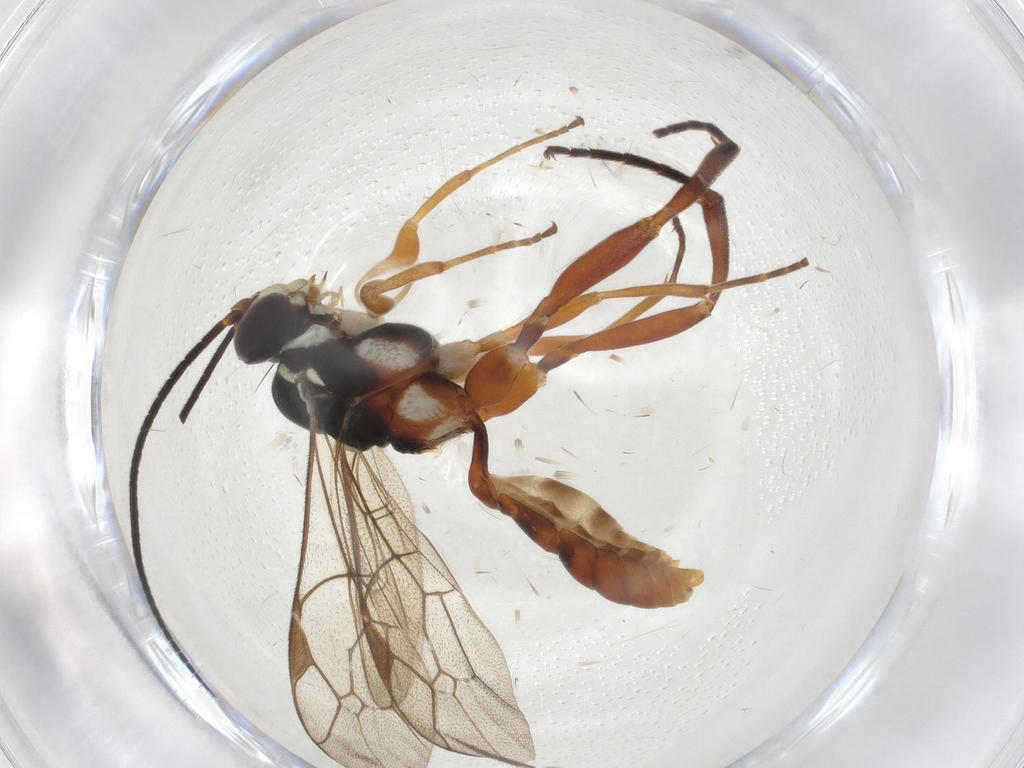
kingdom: Animalia
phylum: Arthropoda
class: Insecta
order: Hymenoptera
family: Ichneumonidae
